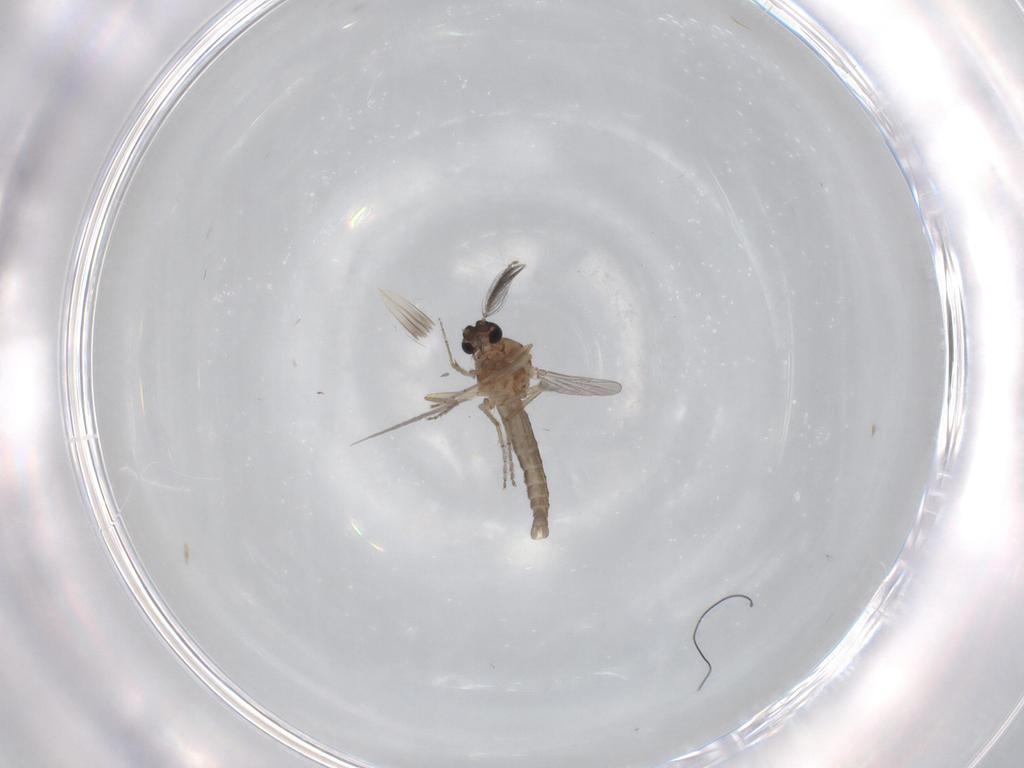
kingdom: Animalia
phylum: Arthropoda
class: Insecta
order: Diptera
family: Ceratopogonidae
